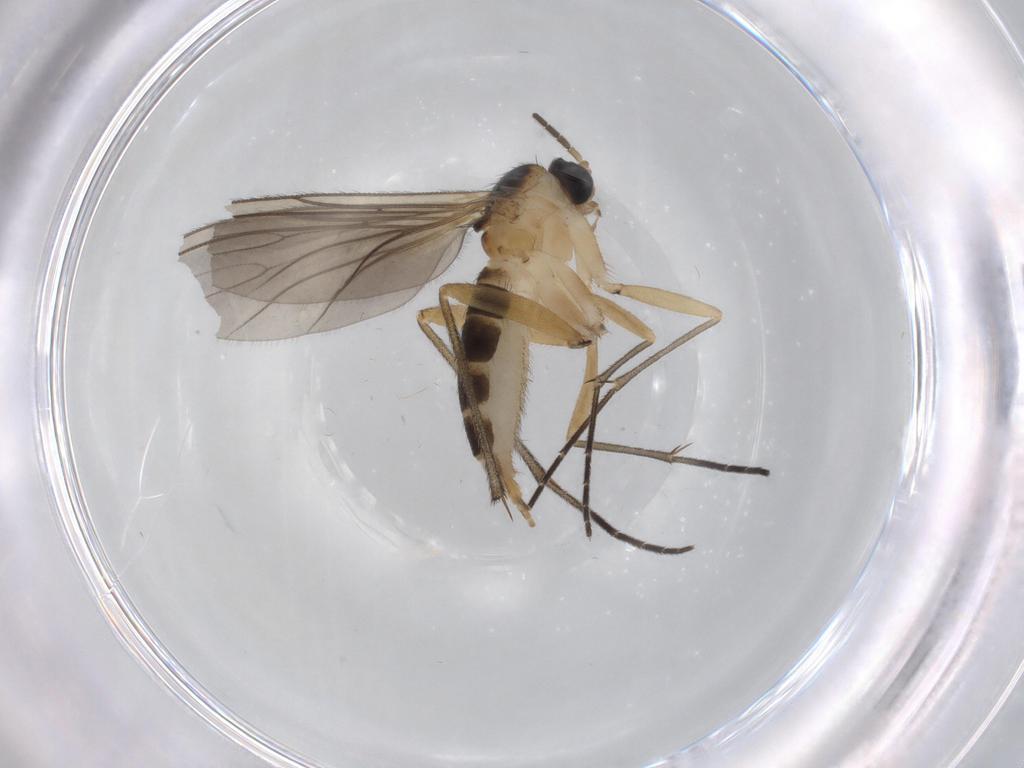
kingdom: Animalia
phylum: Arthropoda
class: Insecta
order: Diptera
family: Sciaridae
